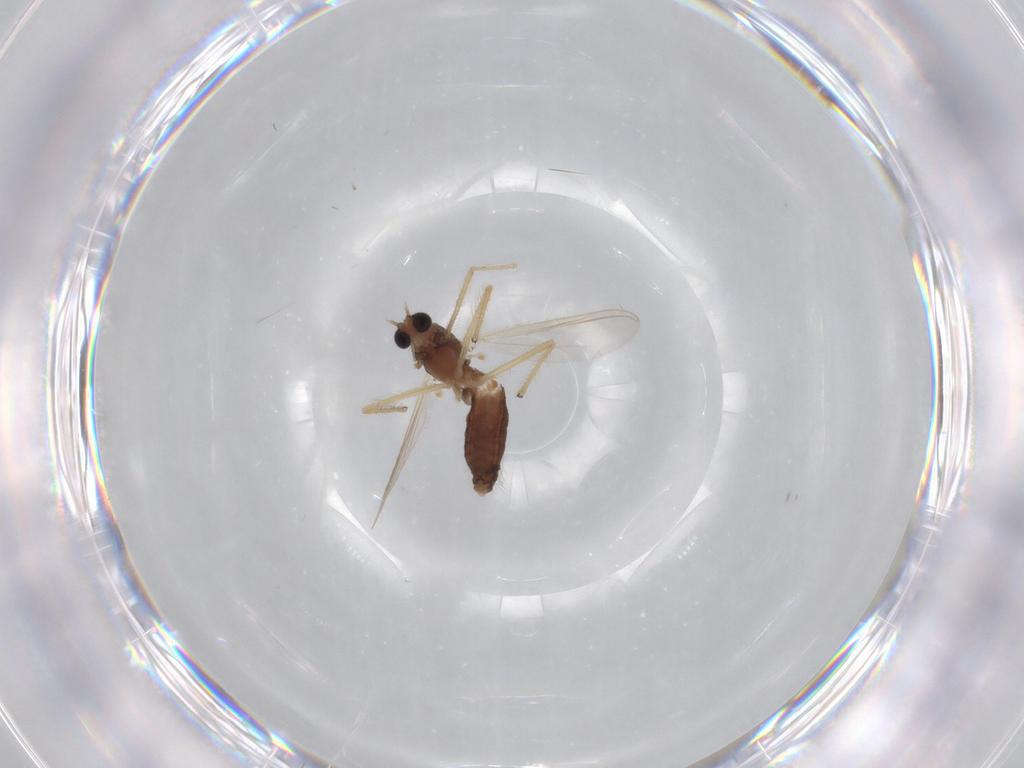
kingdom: Animalia
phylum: Arthropoda
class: Insecta
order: Diptera
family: Chironomidae
